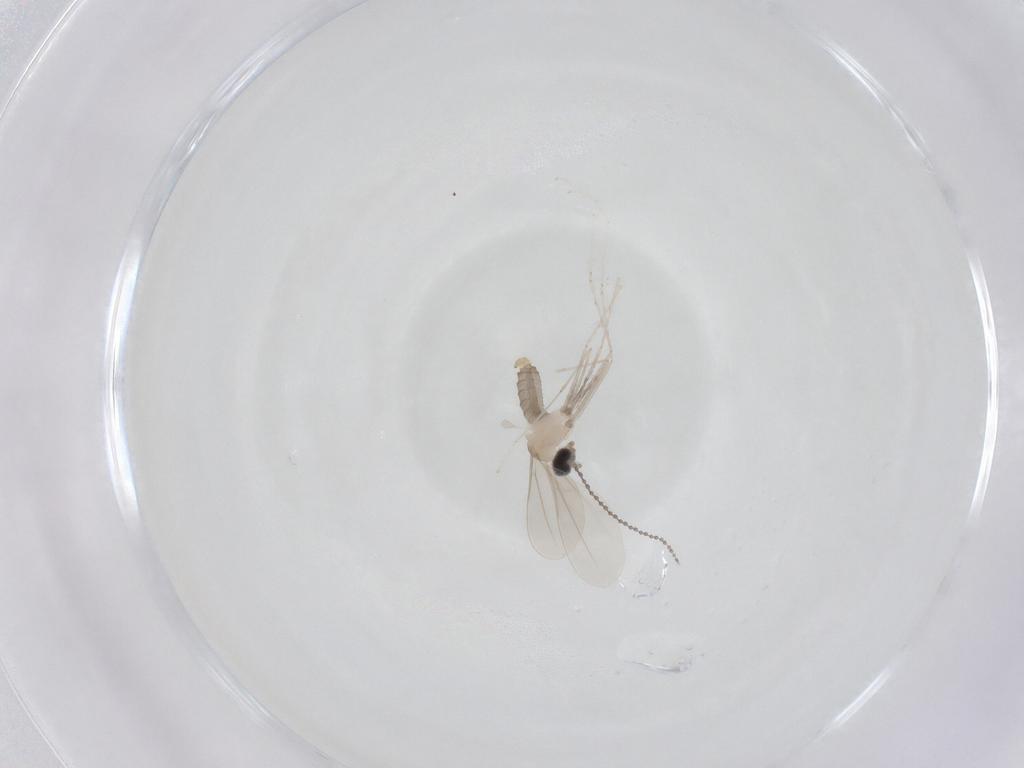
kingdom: Animalia
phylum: Arthropoda
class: Insecta
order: Diptera
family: Cecidomyiidae
